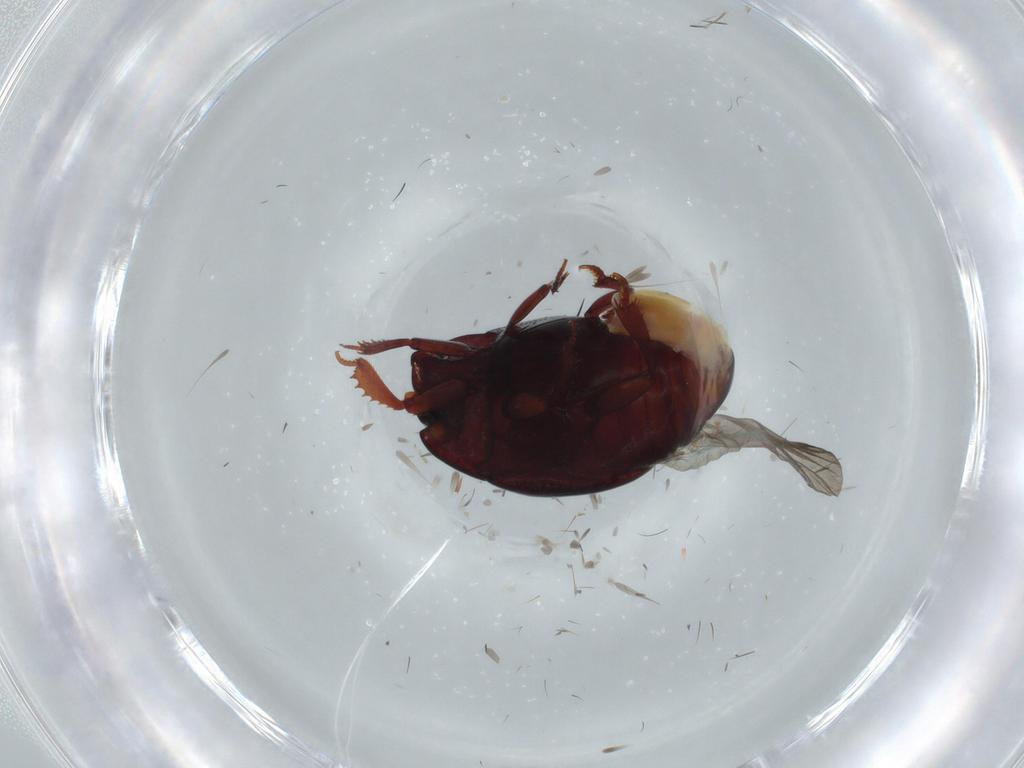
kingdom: Animalia
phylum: Arthropoda
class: Insecta
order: Coleoptera
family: Histeridae
